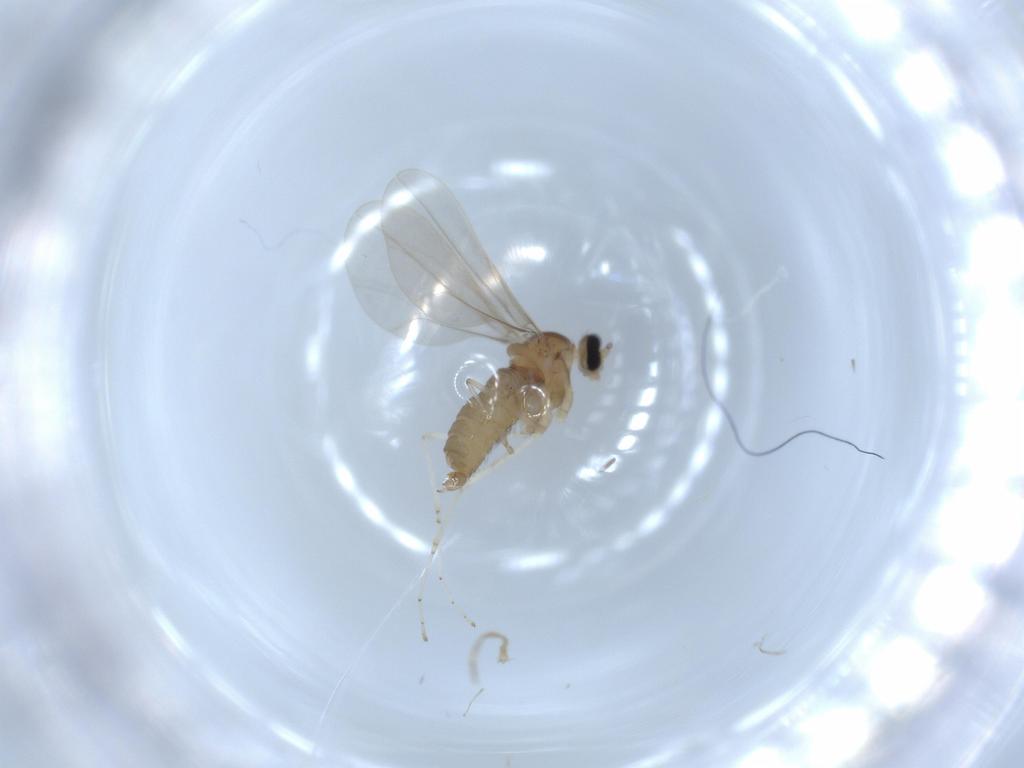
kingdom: Animalia
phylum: Arthropoda
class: Insecta
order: Diptera
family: Cecidomyiidae
